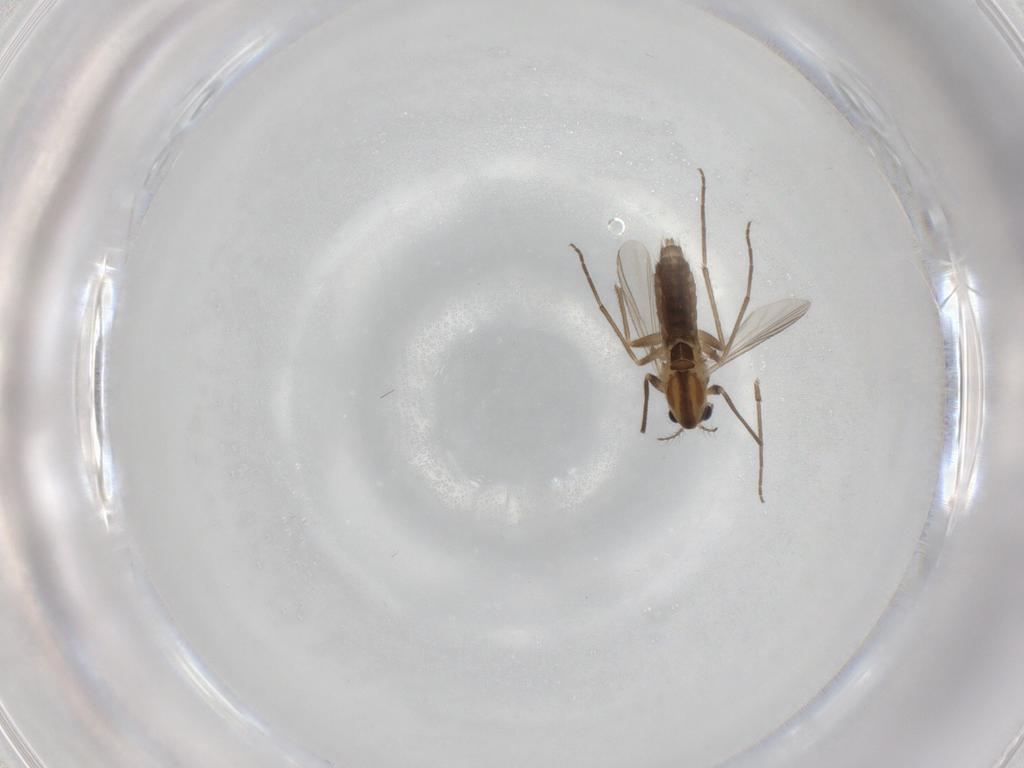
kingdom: Animalia
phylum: Arthropoda
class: Insecta
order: Diptera
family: Chironomidae
